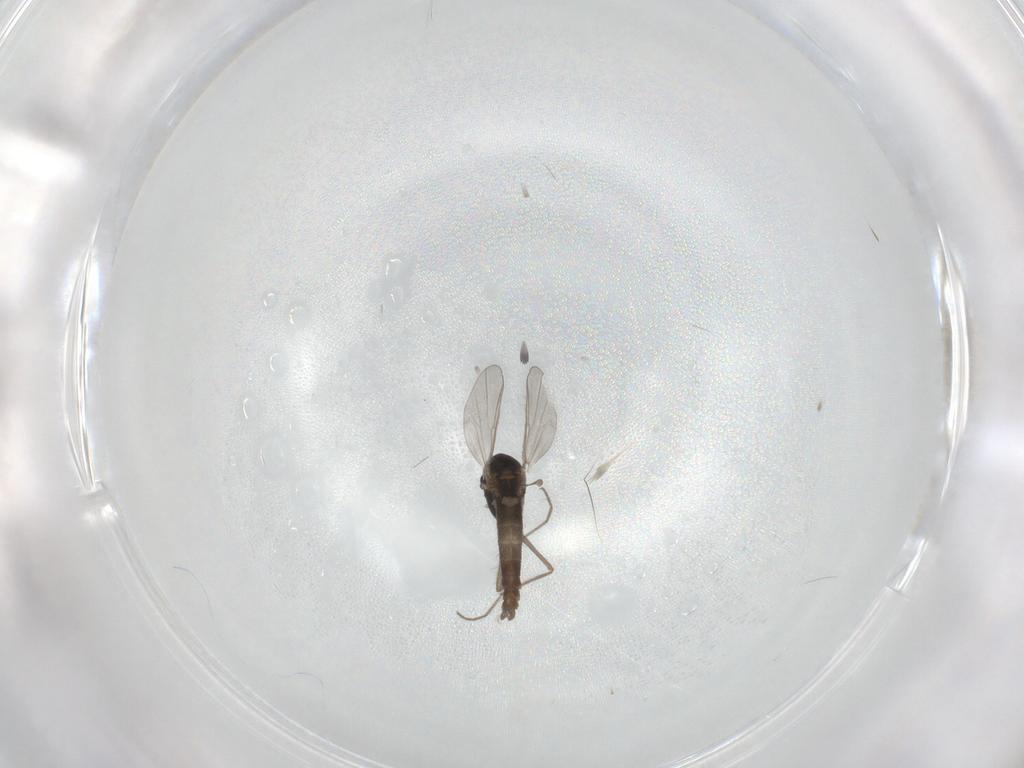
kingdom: Animalia
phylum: Arthropoda
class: Insecta
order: Diptera
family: Chironomidae
